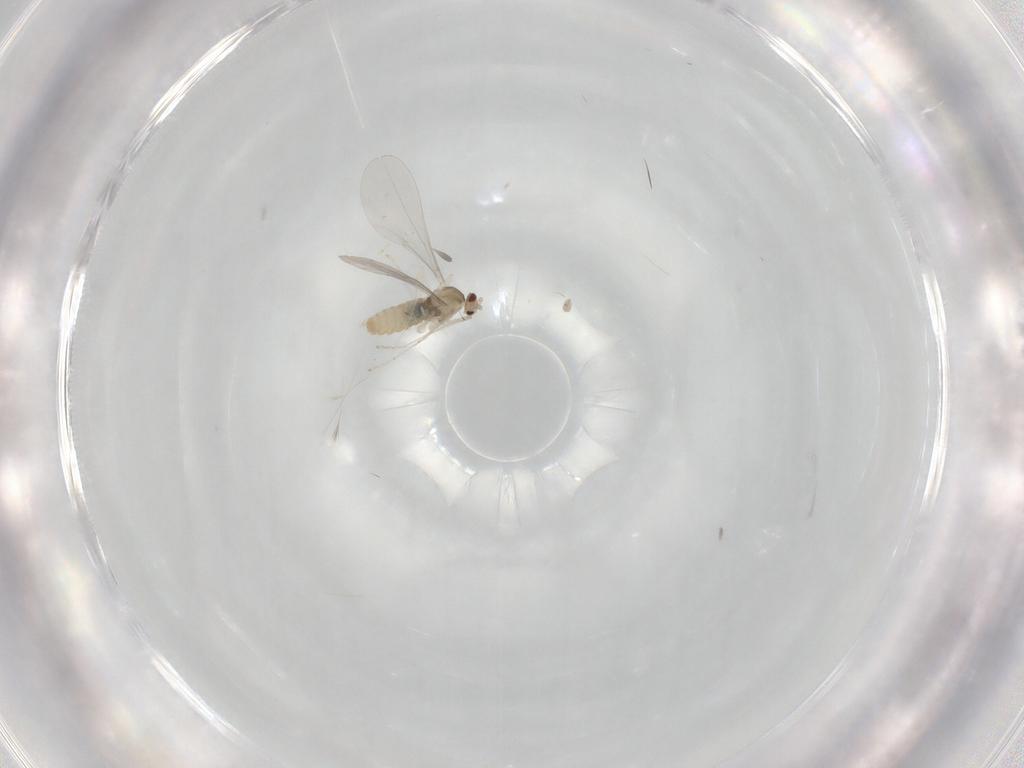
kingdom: Animalia
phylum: Arthropoda
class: Insecta
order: Diptera
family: Cecidomyiidae
